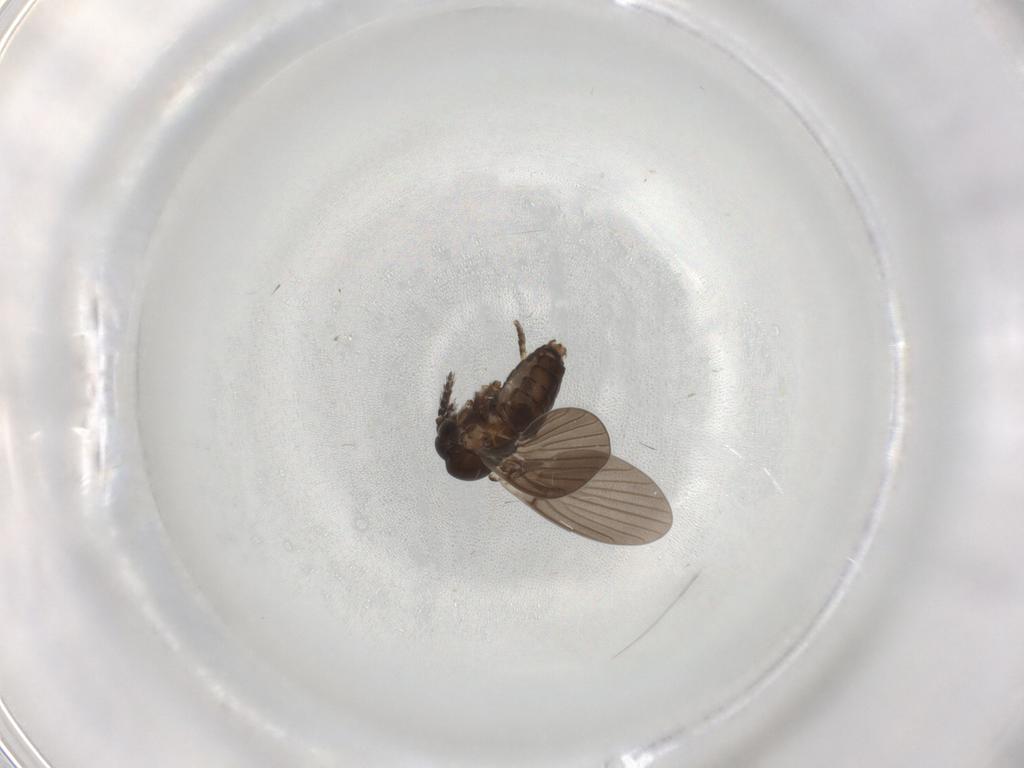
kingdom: Animalia
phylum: Arthropoda
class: Insecta
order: Diptera
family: Psychodidae
